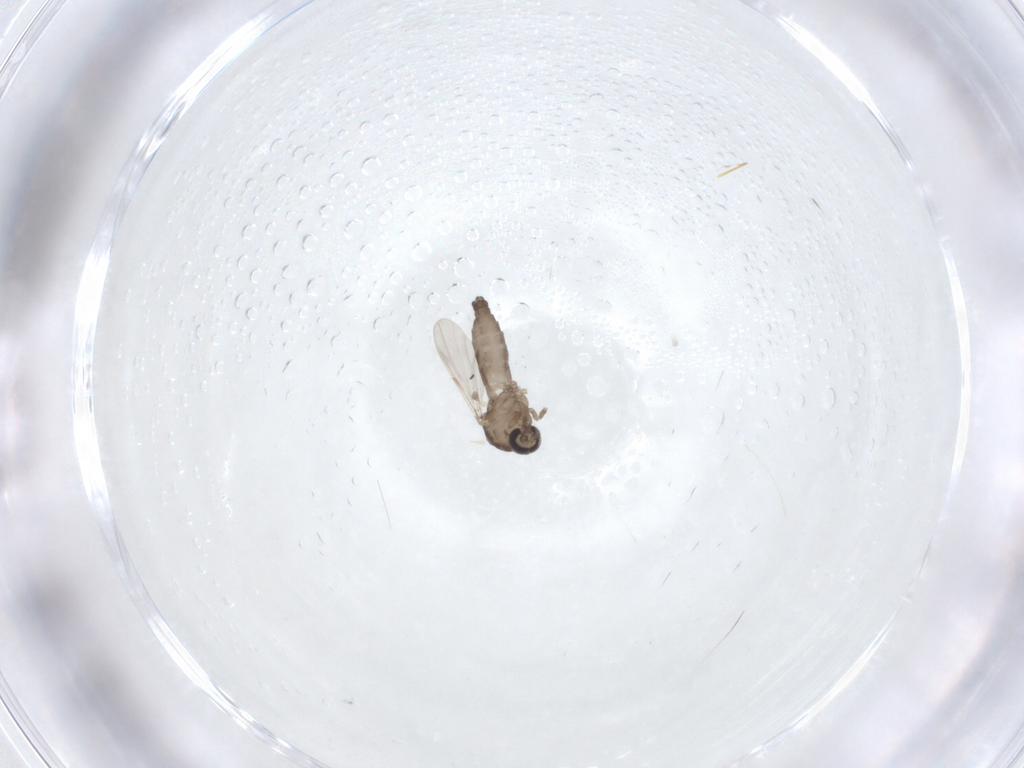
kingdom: Animalia
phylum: Arthropoda
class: Insecta
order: Diptera
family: Ceratopogonidae
